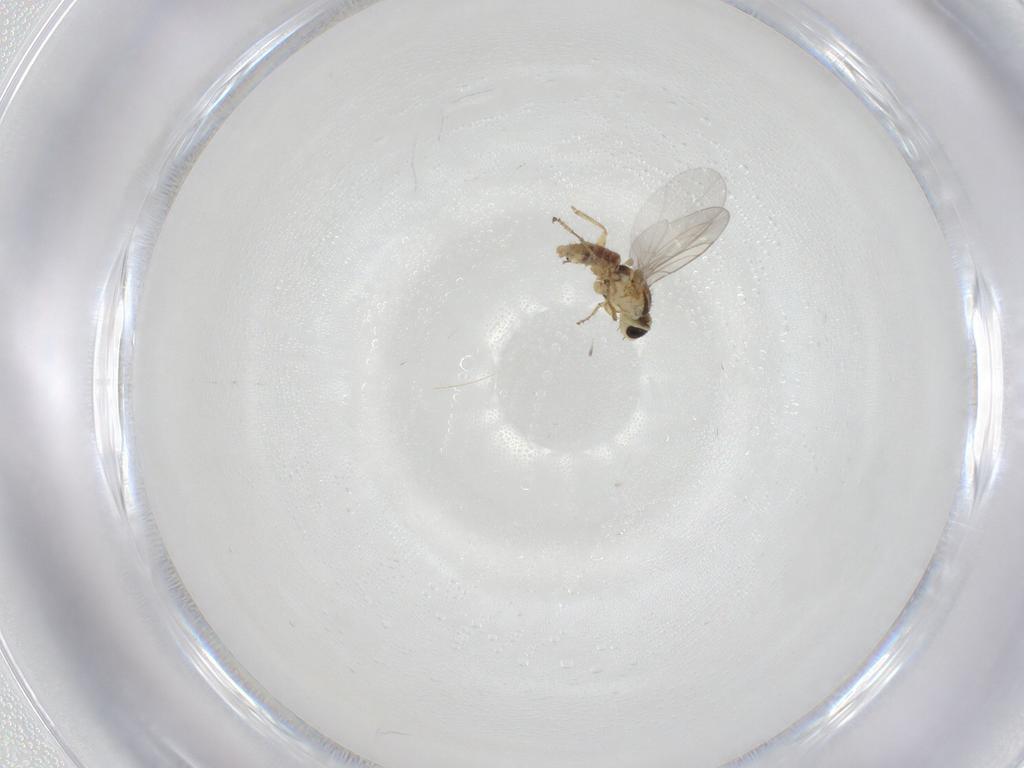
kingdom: Animalia
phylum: Arthropoda
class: Insecta
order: Diptera
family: Agromyzidae
